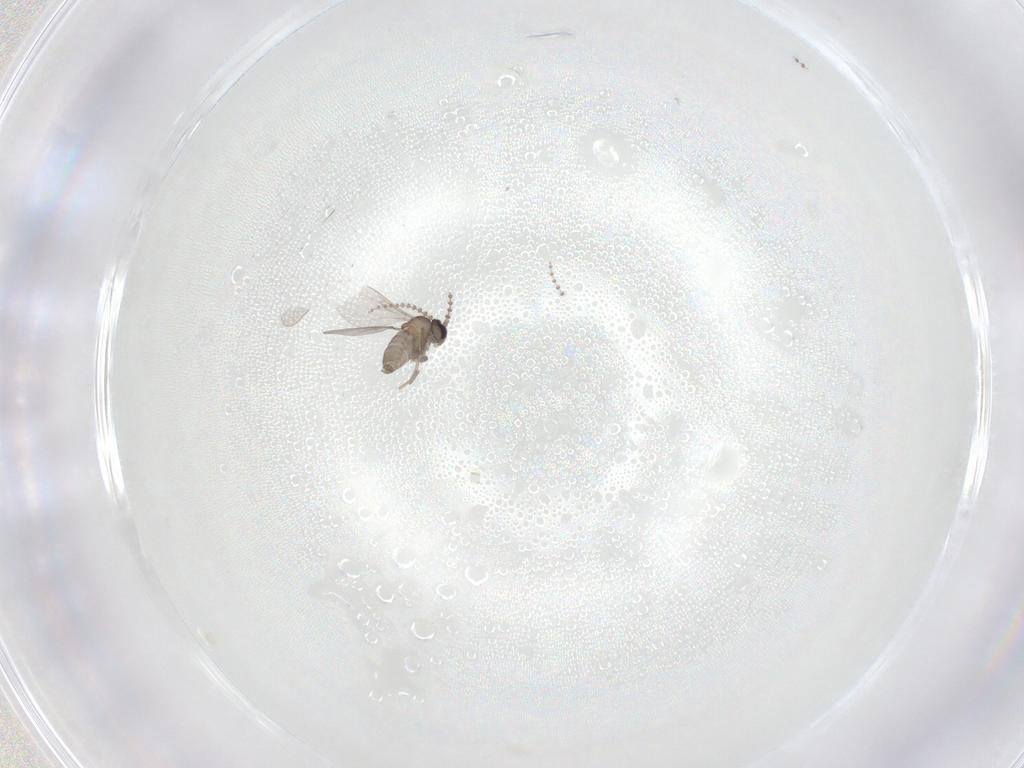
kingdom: Animalia
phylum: Arthropoda
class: Insecta
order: Diptera
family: Cecidomyiidae
